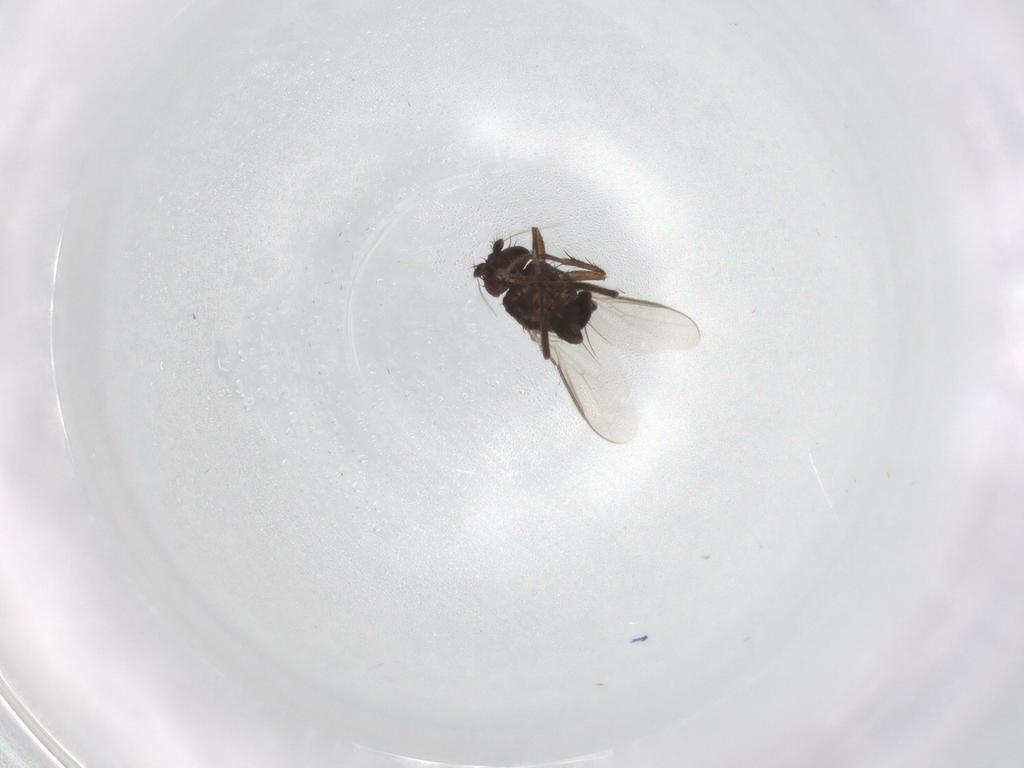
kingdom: Animalia
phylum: Arthropoda
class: Insecta
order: Diptera
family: Sphaeroceridae
